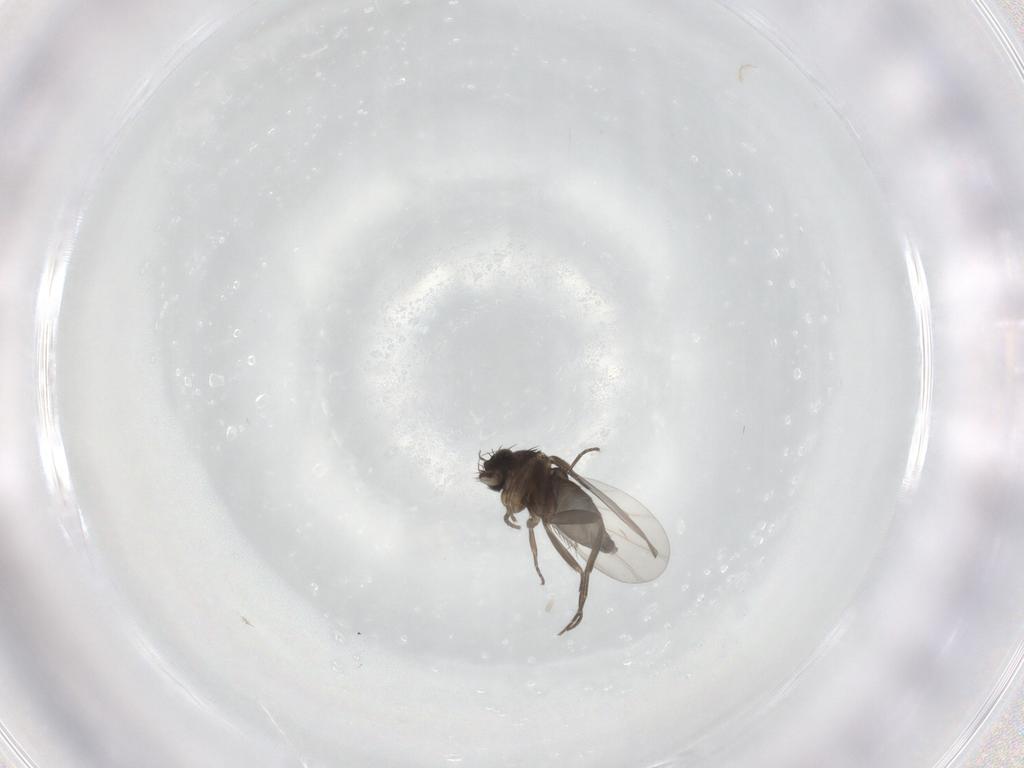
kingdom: Animalia
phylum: Arthropoda
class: Insecta
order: Diptera
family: Phoridae
